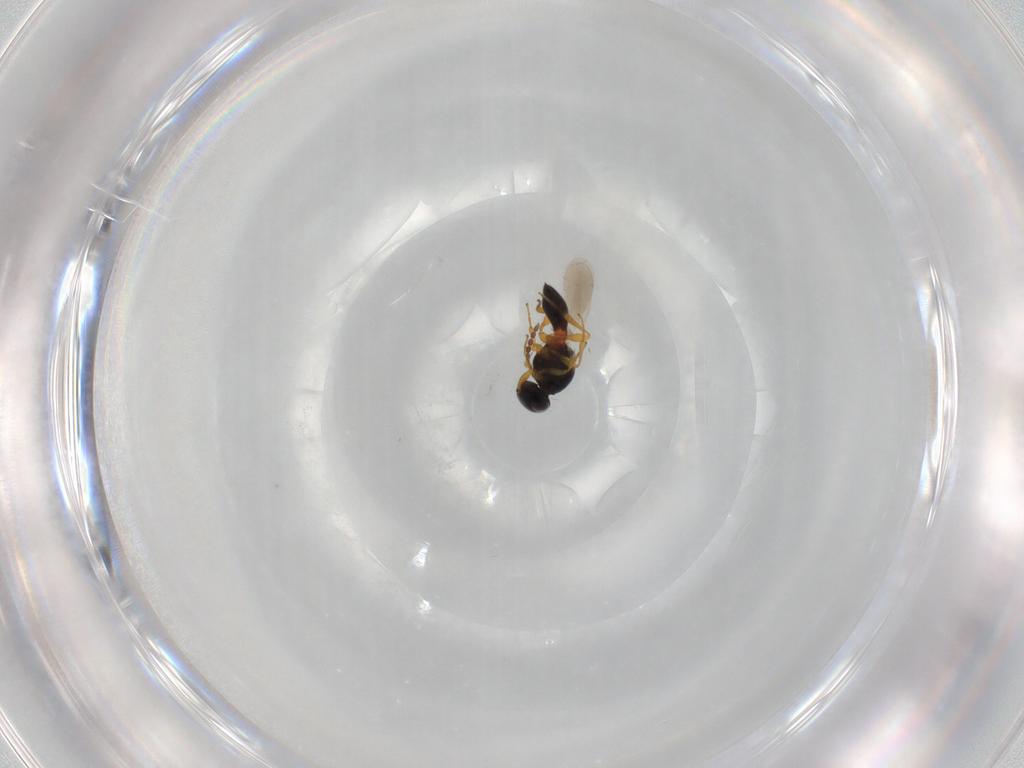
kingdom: Animalia
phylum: Arthropoda
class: Insecta
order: Hymenoptera
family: Platygastridae
